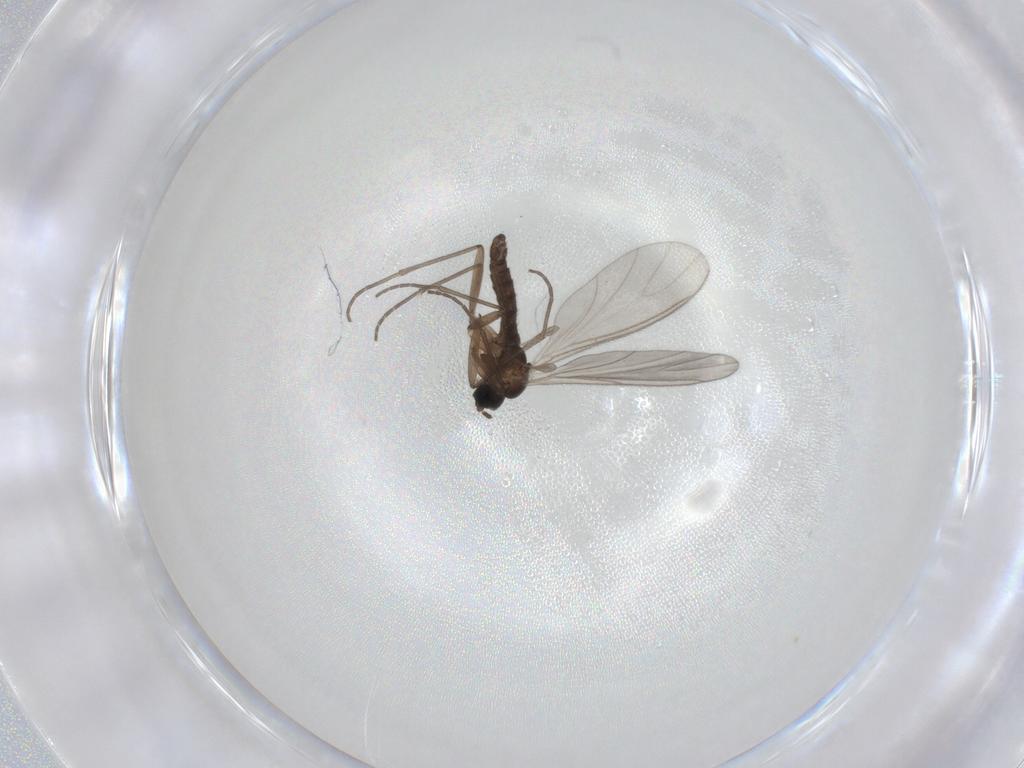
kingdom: Animalia
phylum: Arthropoda
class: Insecta
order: Diptera
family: Sciaridae
